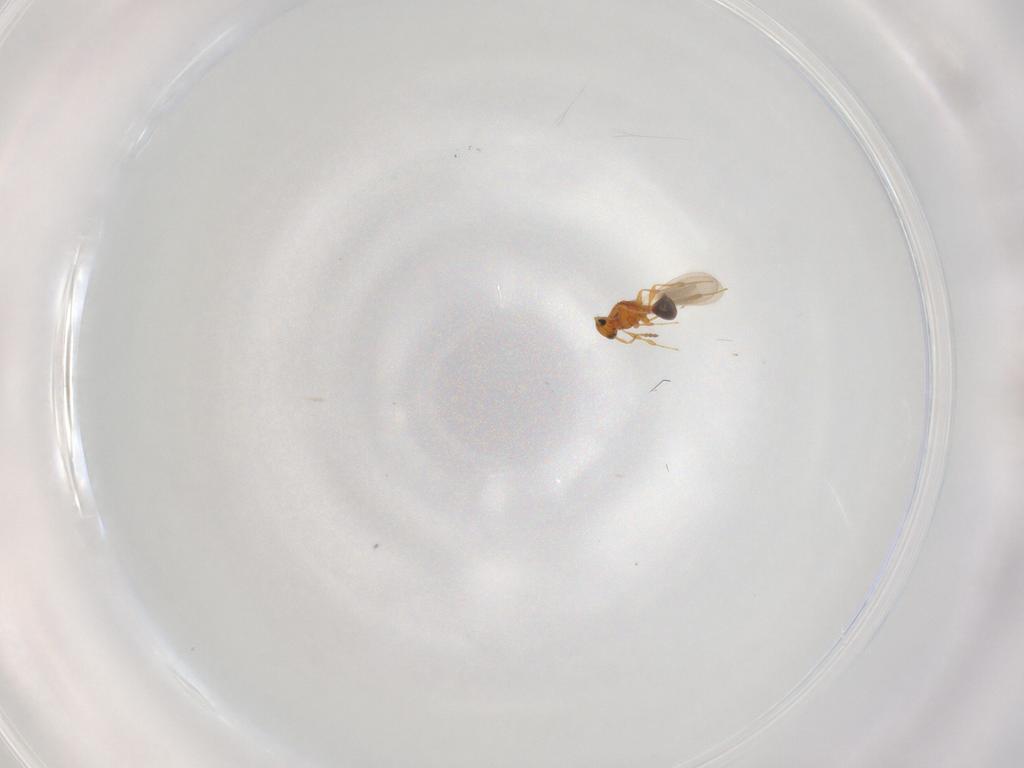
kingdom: Animalia
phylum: Arthropoda
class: Insecta
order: Hymenoptera
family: Platygastridae
